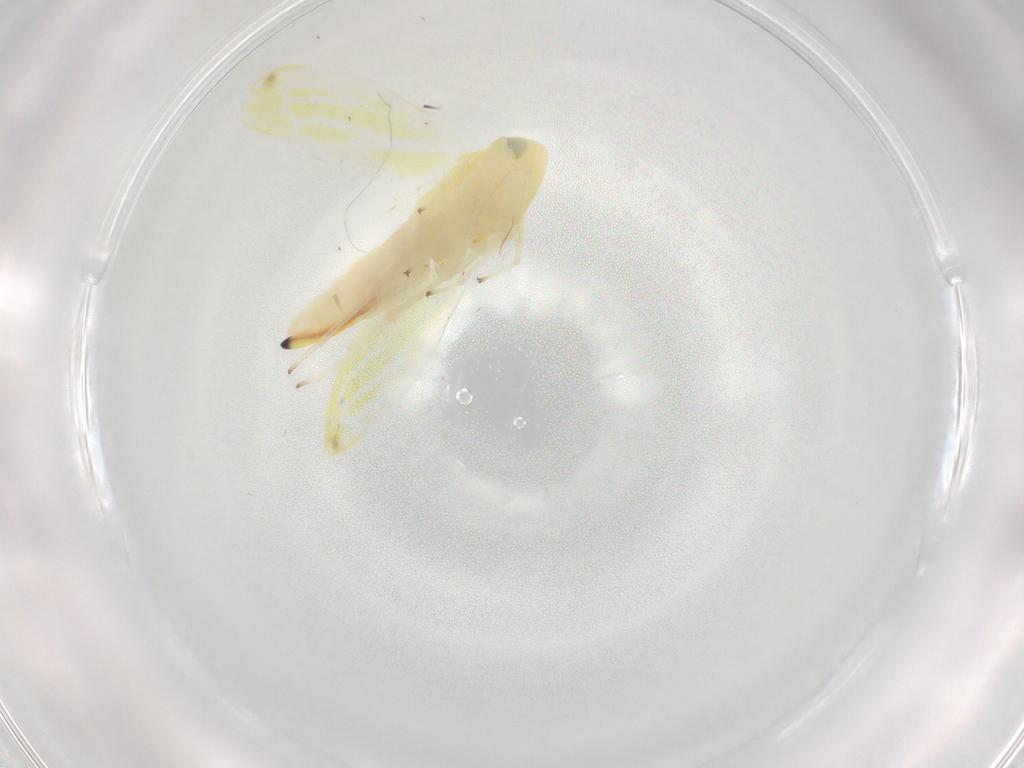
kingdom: Animalia
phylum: Arthropoda
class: Insecta
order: Hemiptera
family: Cicadellidae
